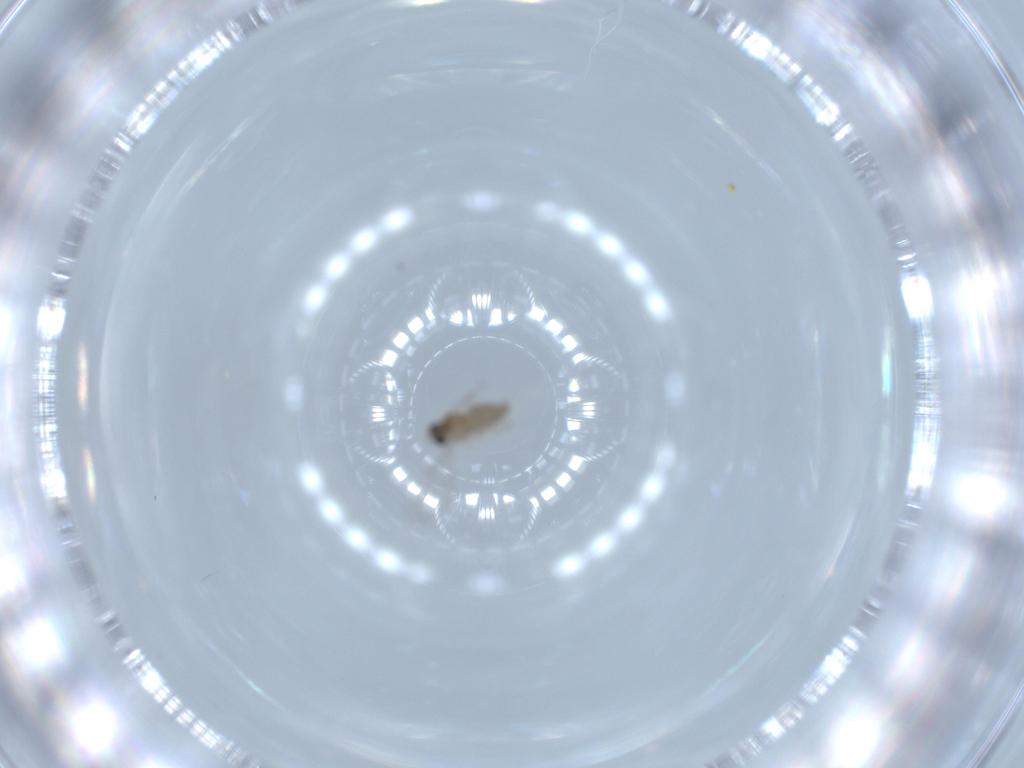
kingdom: Animalia
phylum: Arthropoda
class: Insecta
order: Diptera
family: Cecidomyiidae
